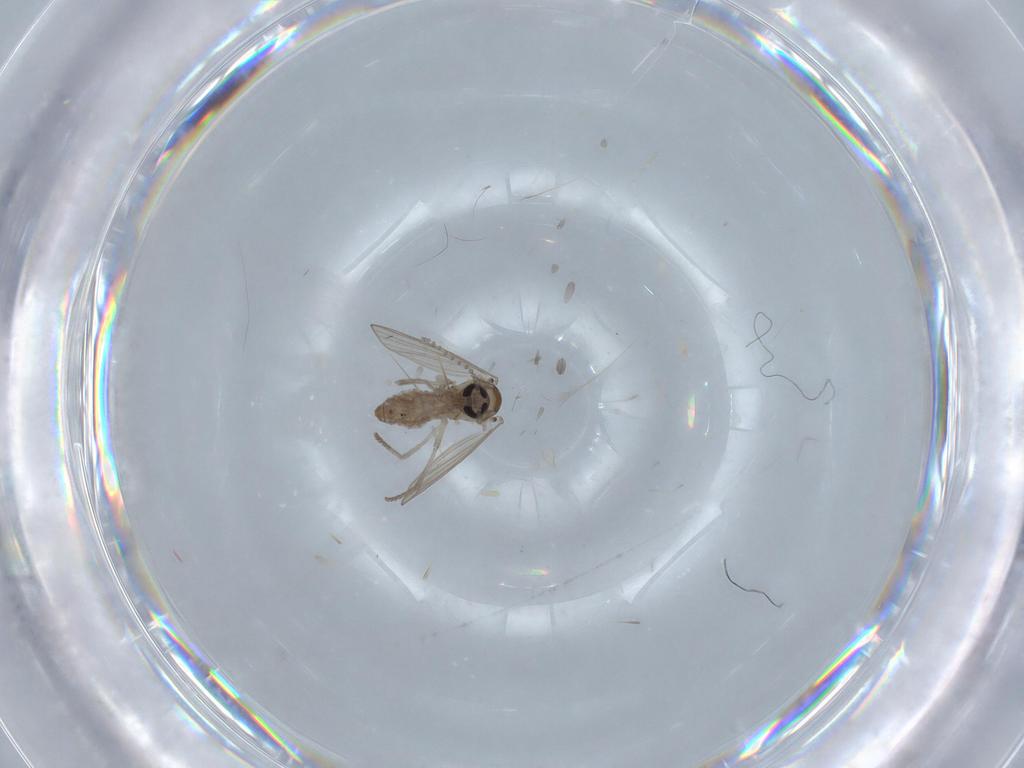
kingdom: Animalia
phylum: Arthropoda
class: Insecta
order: Diptera
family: Psychodidae
